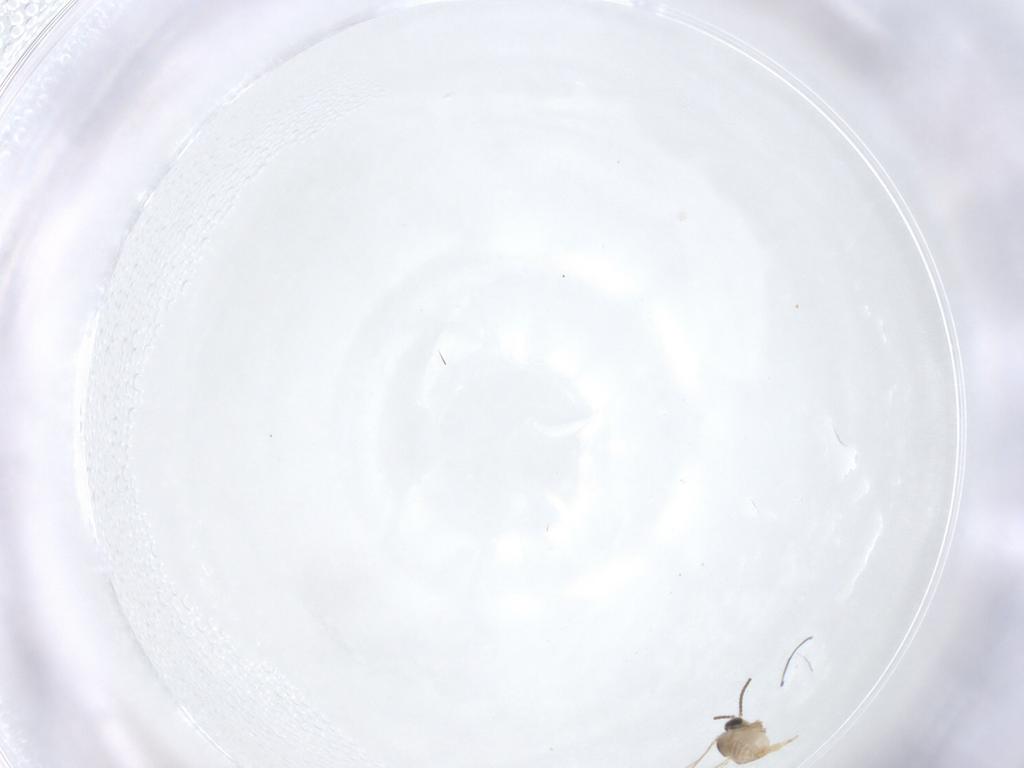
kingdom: Animalia
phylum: Arthropoda
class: Insecta
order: Diptera
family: Cecidomyiidae
